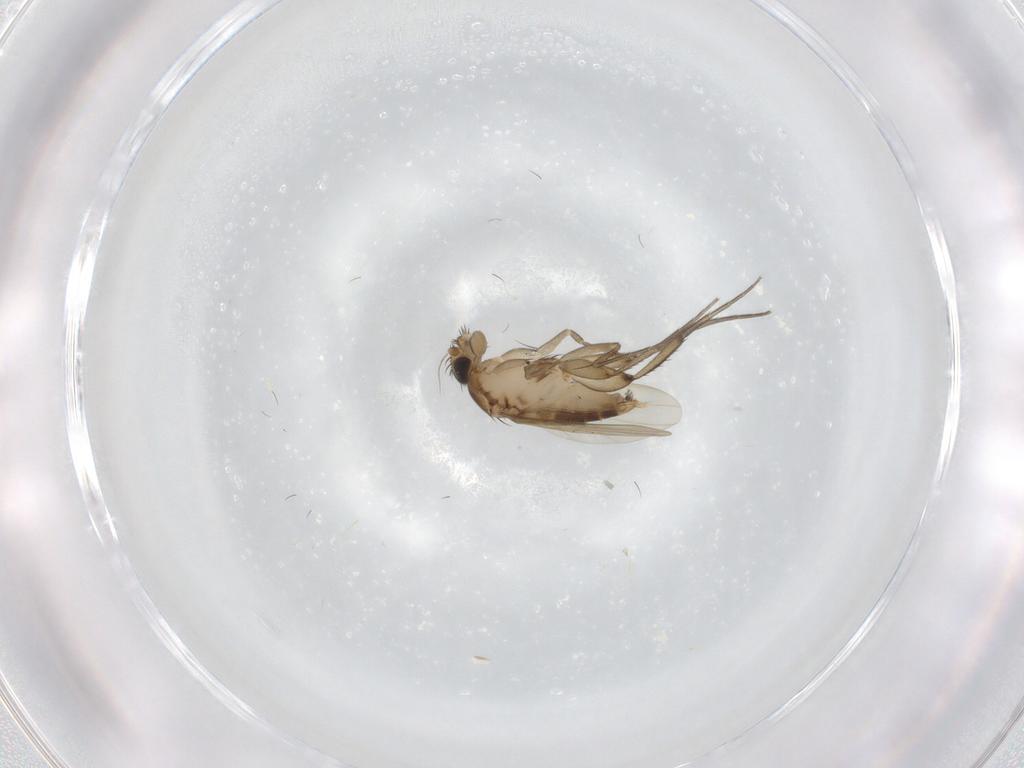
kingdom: Animalia
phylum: Arthropoda
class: Insecta
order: Diptera
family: Phoridae
